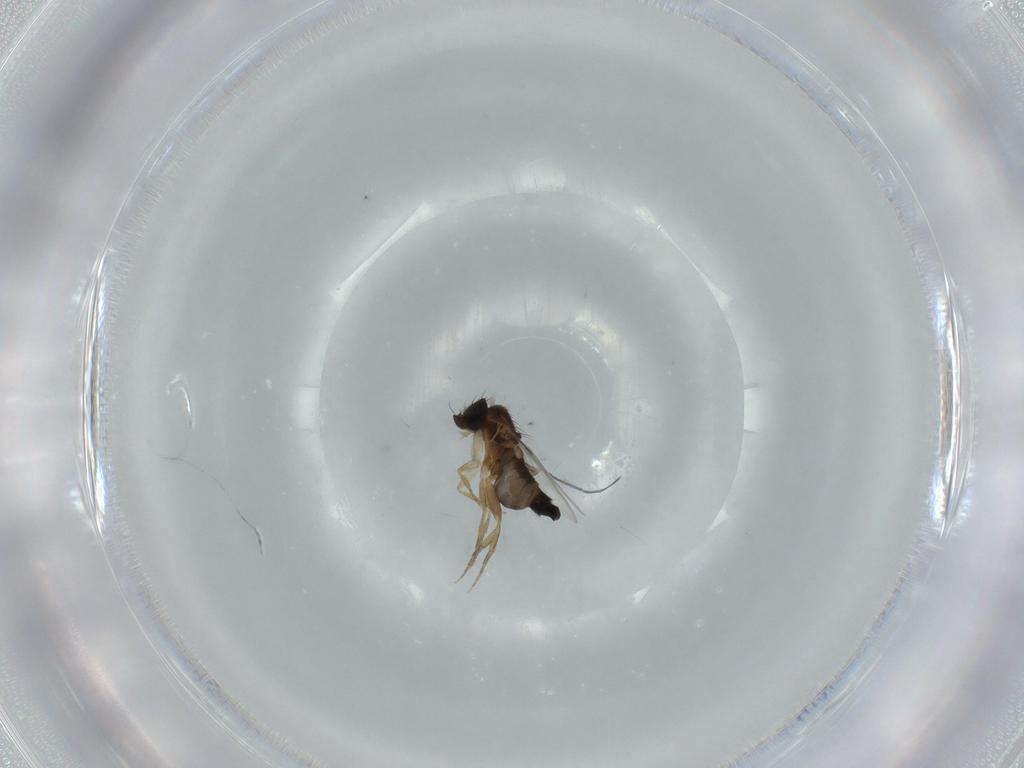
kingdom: Animalia
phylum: Arthropoda
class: Insecta
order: Diptera
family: Phoridae
